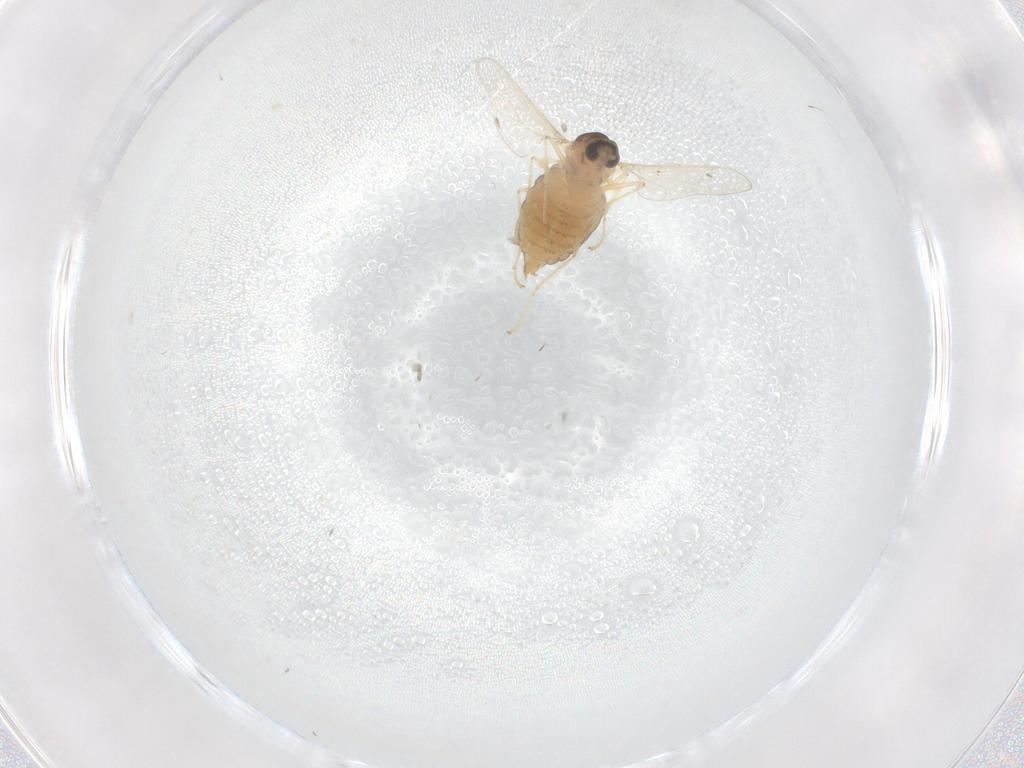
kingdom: Animalia
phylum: Arthropoda
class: Insecta
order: Diptera
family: Cecidomyiidae
